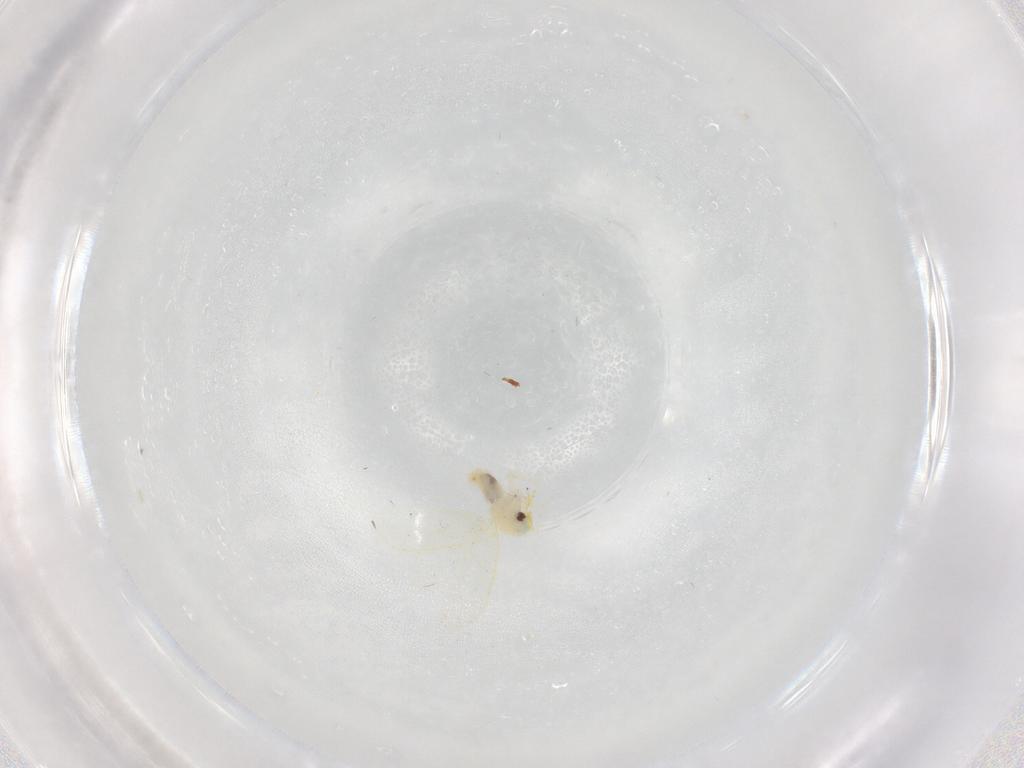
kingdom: Animalia
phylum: Arthropoda
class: Insecta
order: Hemiptera
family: Aleyrodidae
